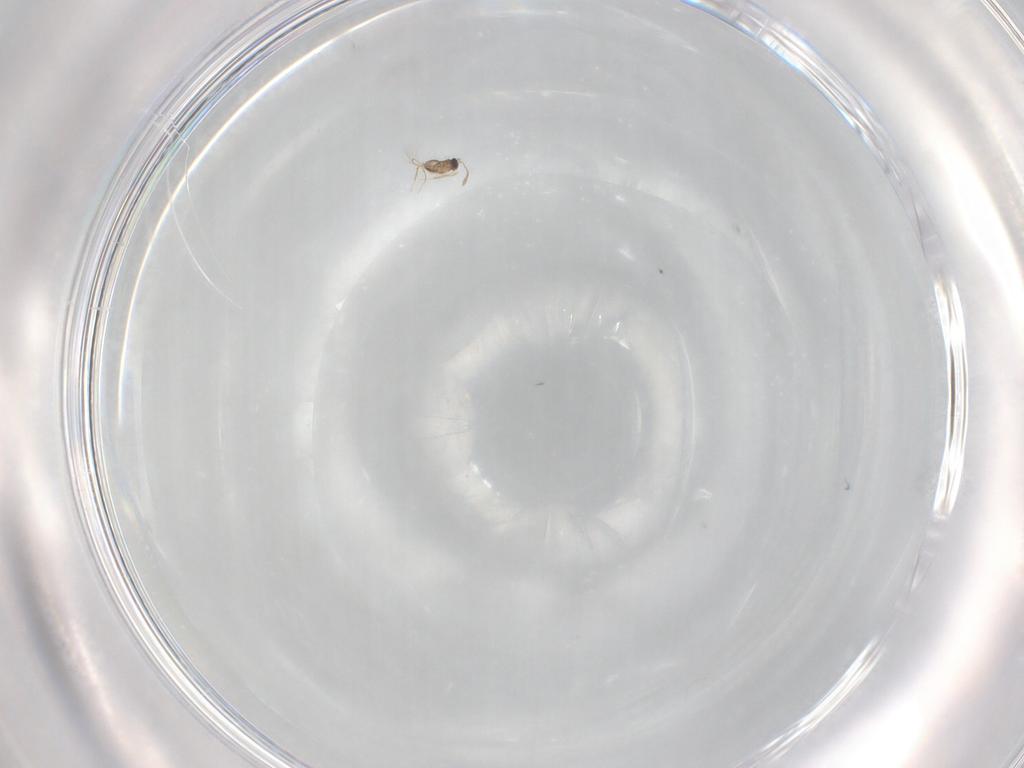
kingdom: Animalia
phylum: Arthropoda
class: Insecta
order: Hymenoptera
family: Mymaridae
